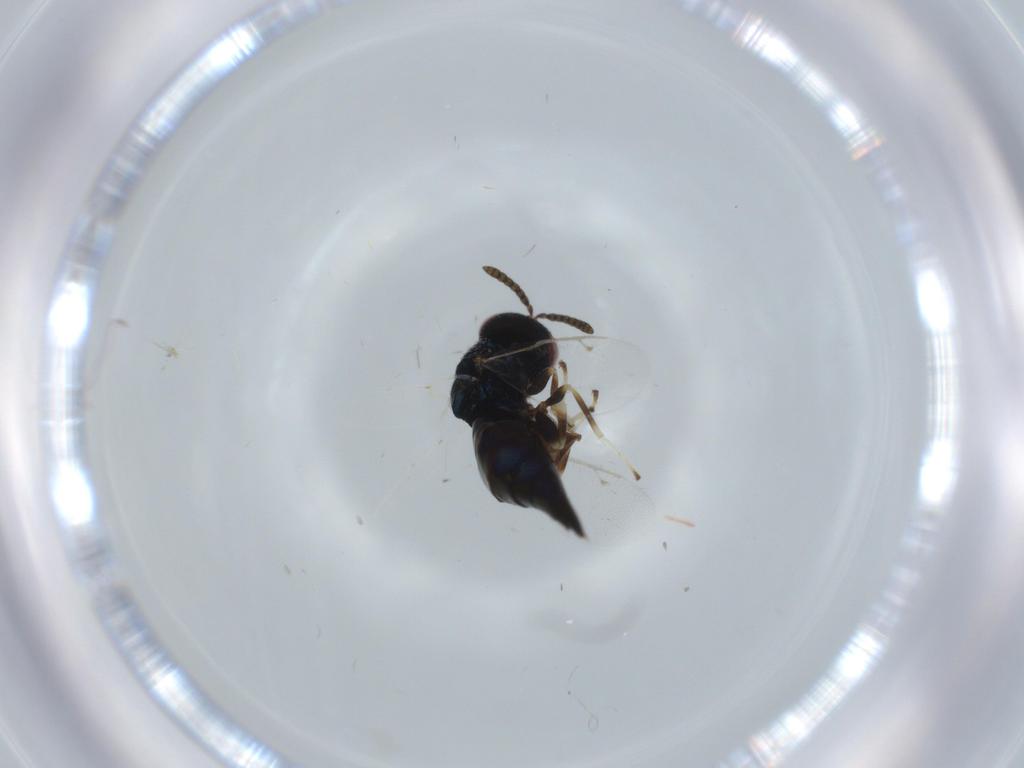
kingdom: Animalia
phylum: Arthropoda
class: Insecta
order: Hymenoptera
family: Pteromalidae
